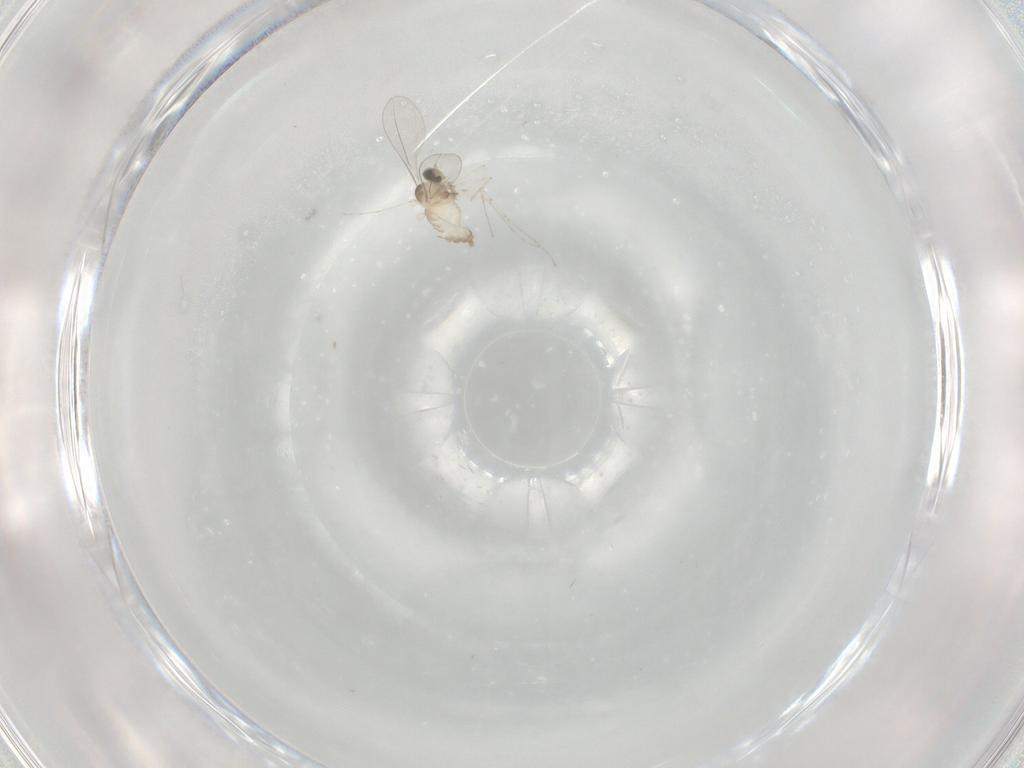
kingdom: Animalia
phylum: Arthropoda
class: Insecta
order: Diptera
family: Cecidomyiidae
